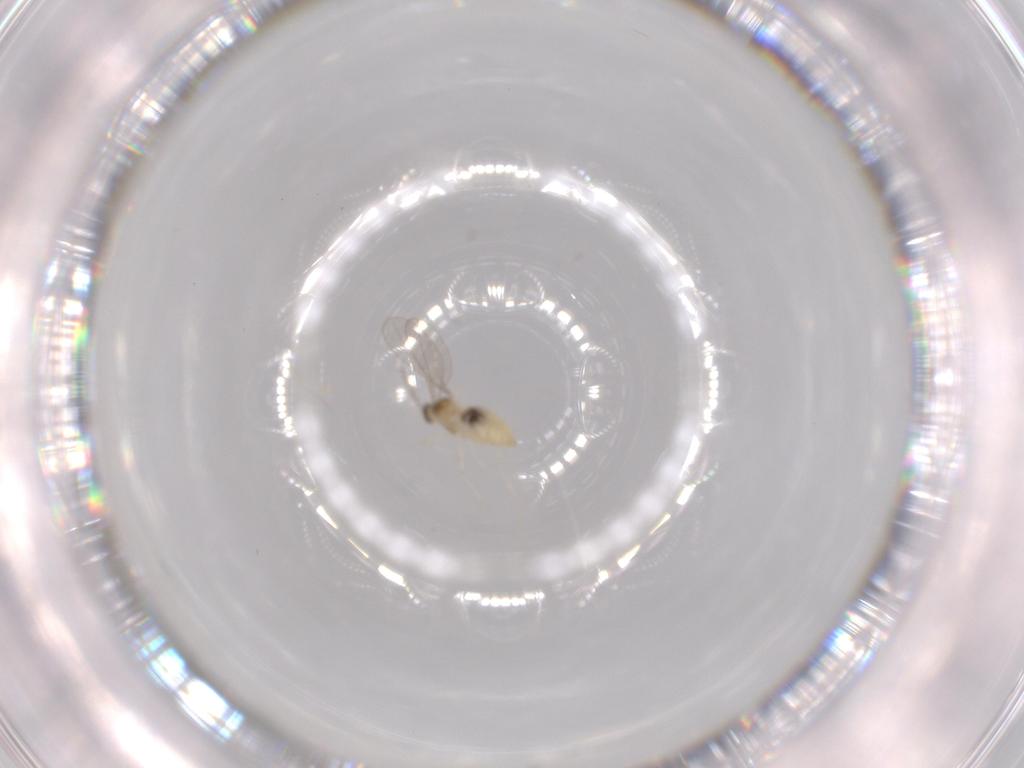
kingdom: Animalia
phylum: Arthropoda
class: Insecta
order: Diptera
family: Cecidomyiidae
